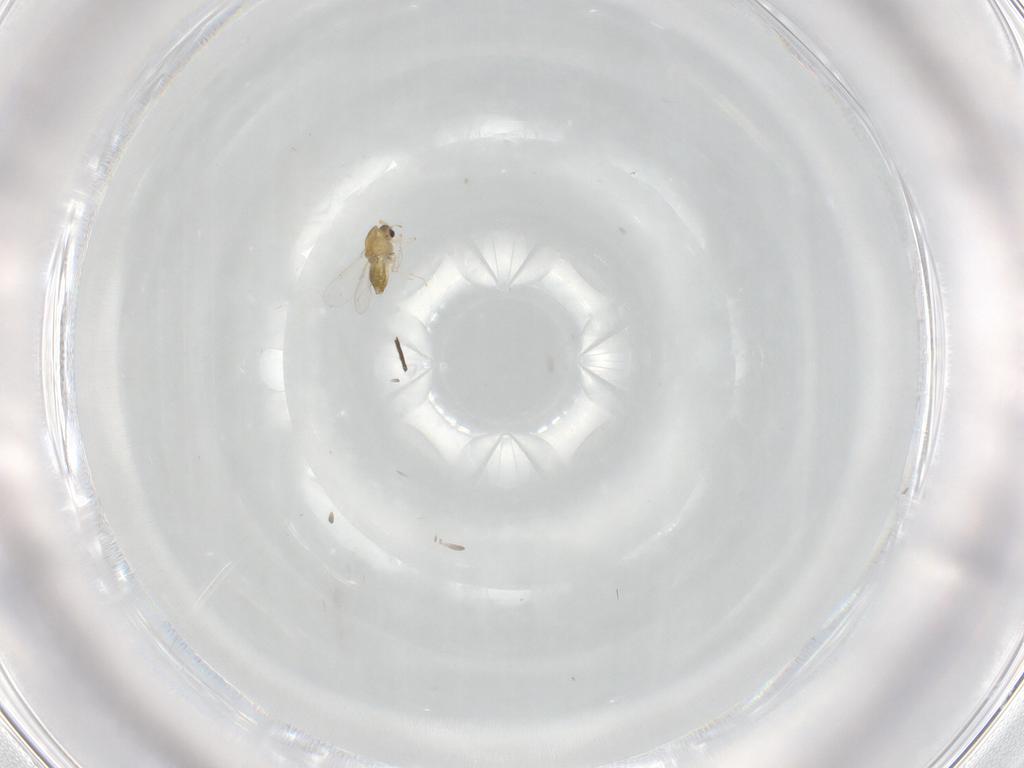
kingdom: Animalia
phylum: Arthropoda
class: Insecta
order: Diptera
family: Chironomidae
